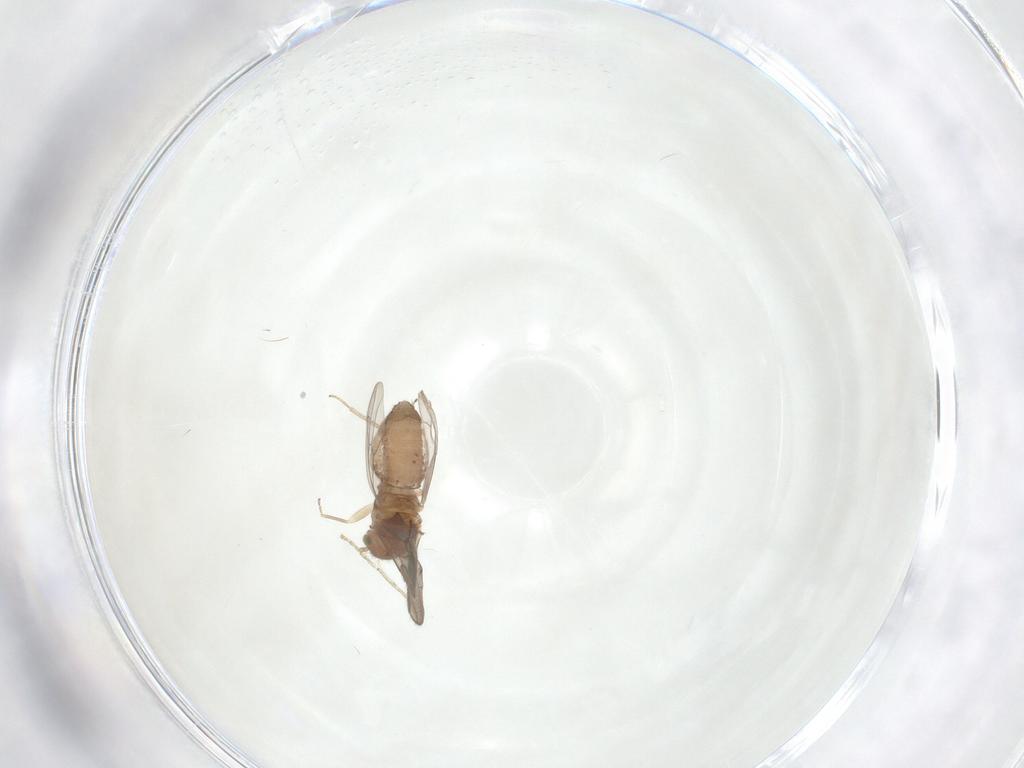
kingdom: Animalia
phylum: Arthropoda
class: Insecta
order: Psocodea
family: Ectopsocidae
